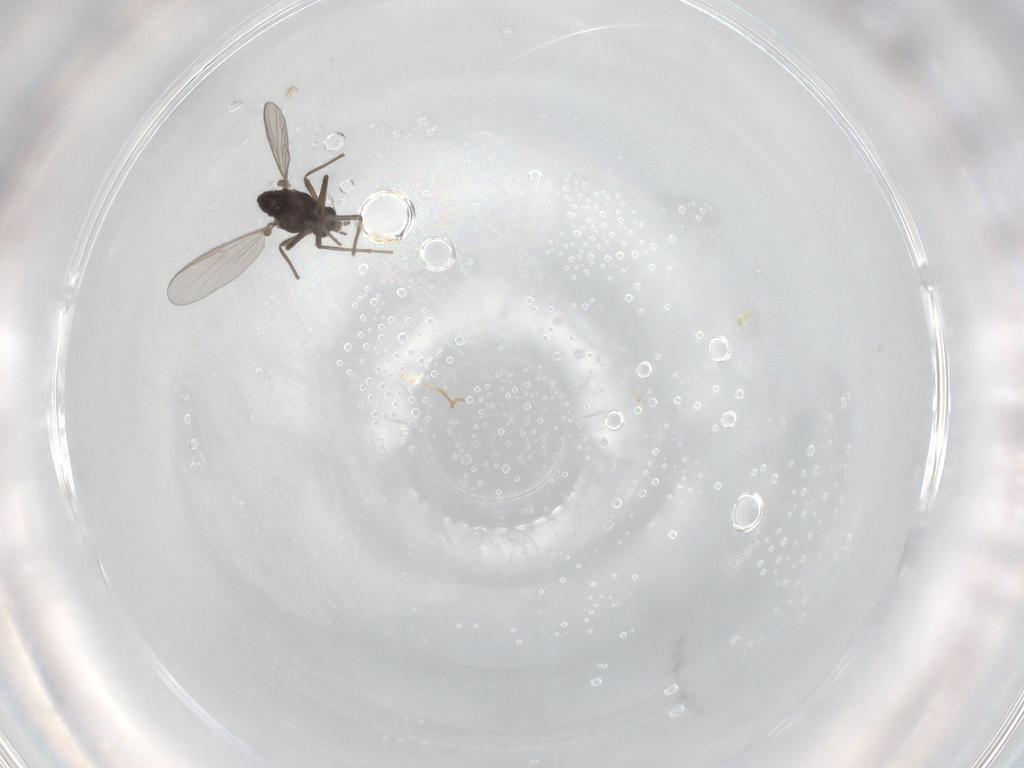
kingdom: Animalia
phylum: Arthropoda
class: Insecta
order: Diptera
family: Chironomidae
